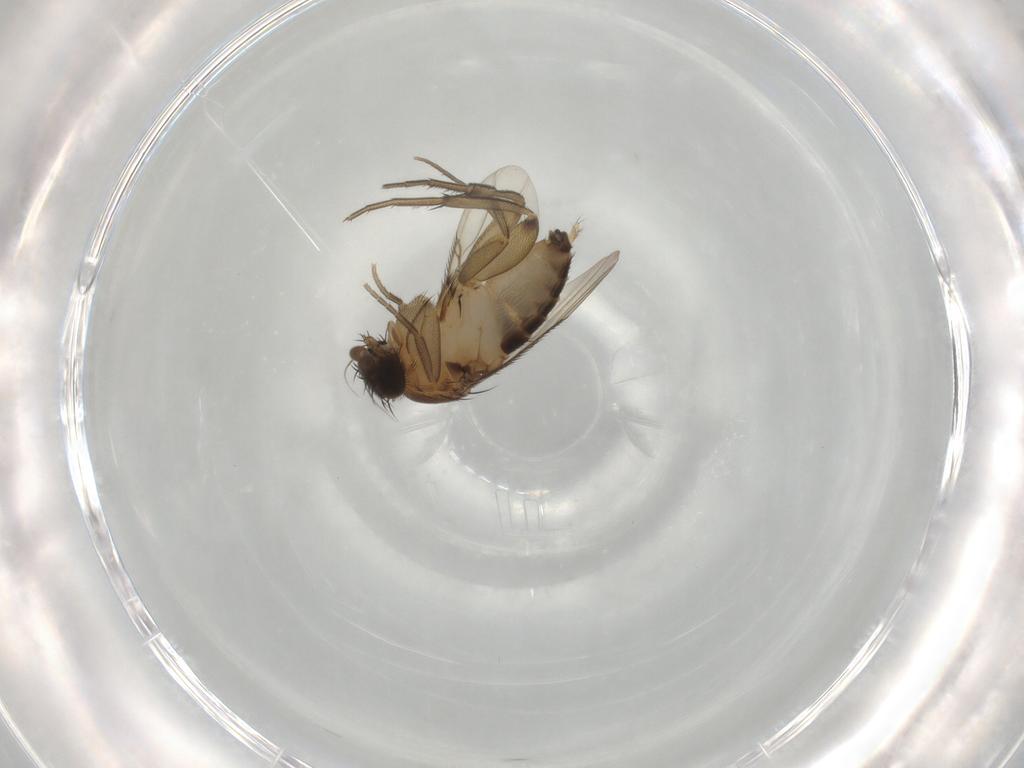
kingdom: Animalia
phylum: Arthropoda
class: Insecta
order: Diptera
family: Phoridae
